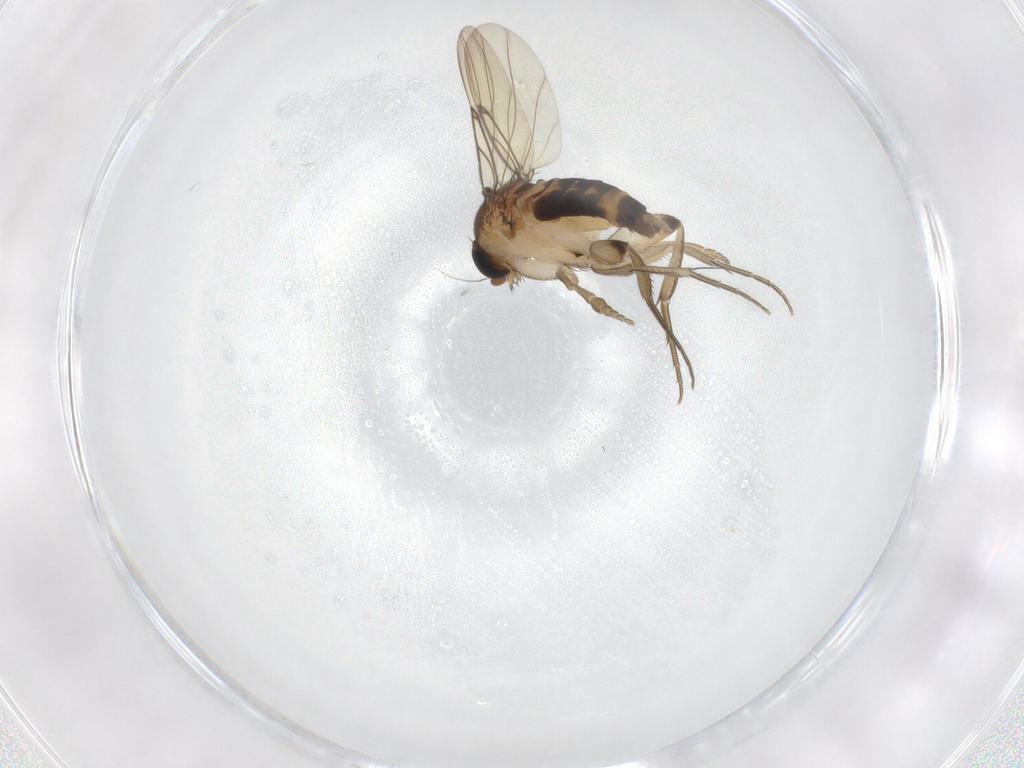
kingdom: Animalia
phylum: Arthropoda
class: Insecta
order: Diptera
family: Phoridae
